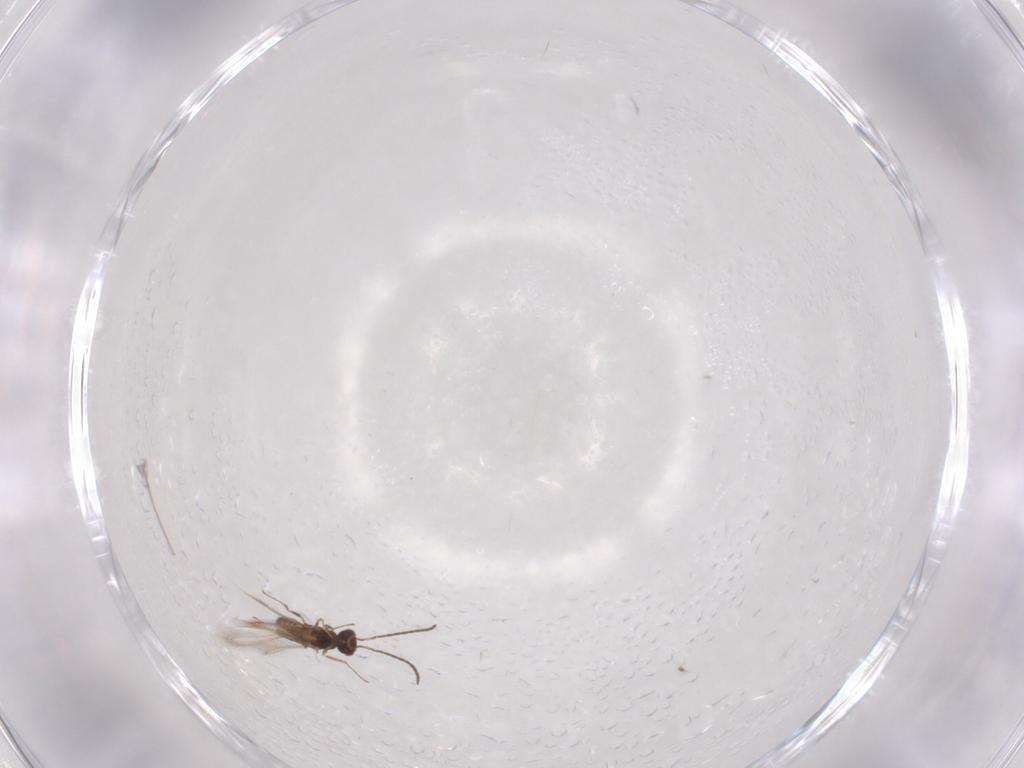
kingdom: Animalia
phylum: Arthropoda
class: Insecta
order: Hymenoptera
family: Mymaridae
